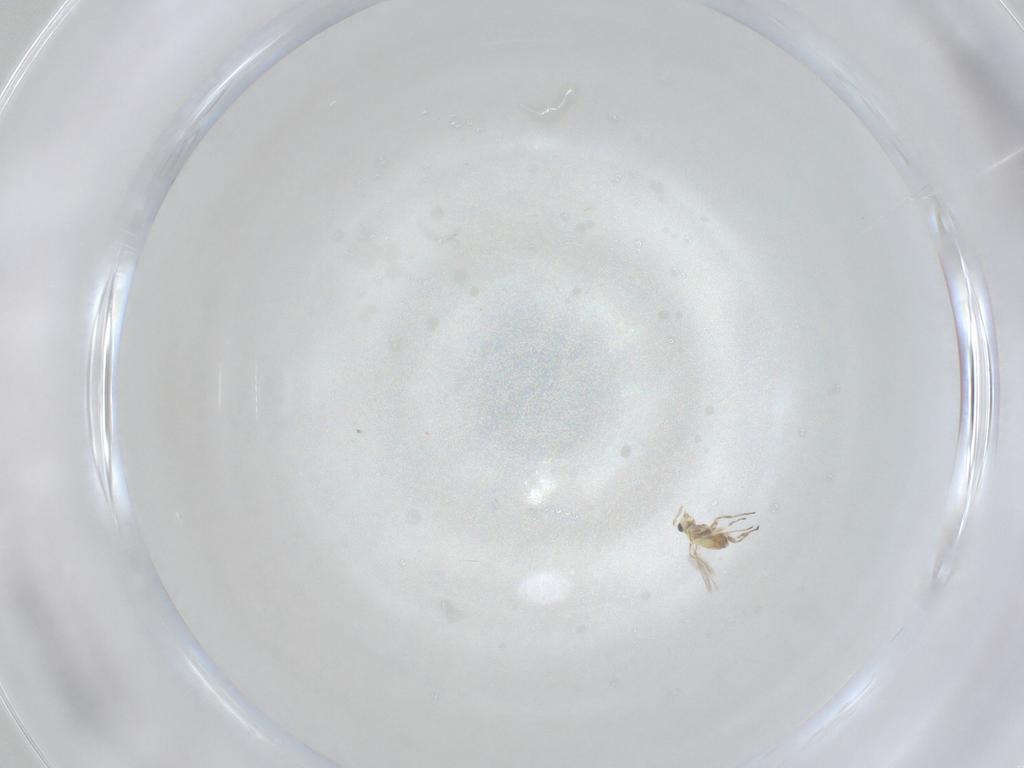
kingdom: Animalia
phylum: Arthropoda
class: Insecta
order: Hymenoptera
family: Trichogrammatidae
